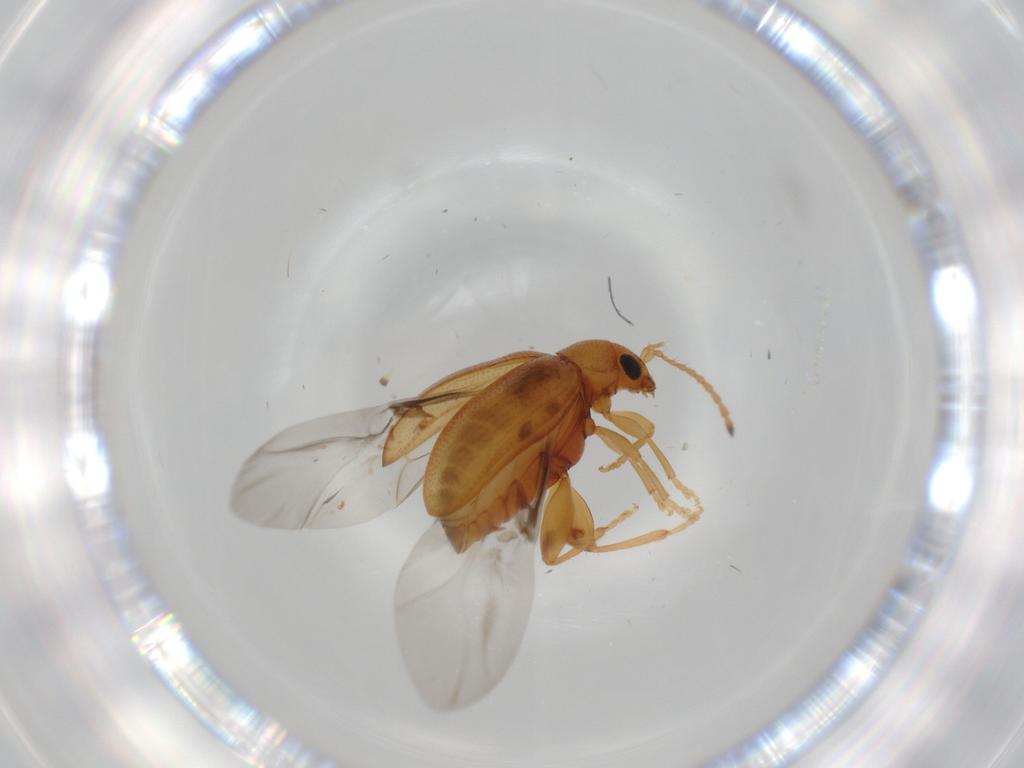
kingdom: Animalia
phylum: Arthropoda
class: Insecta
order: Coleoptera
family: Chrysomelidae
